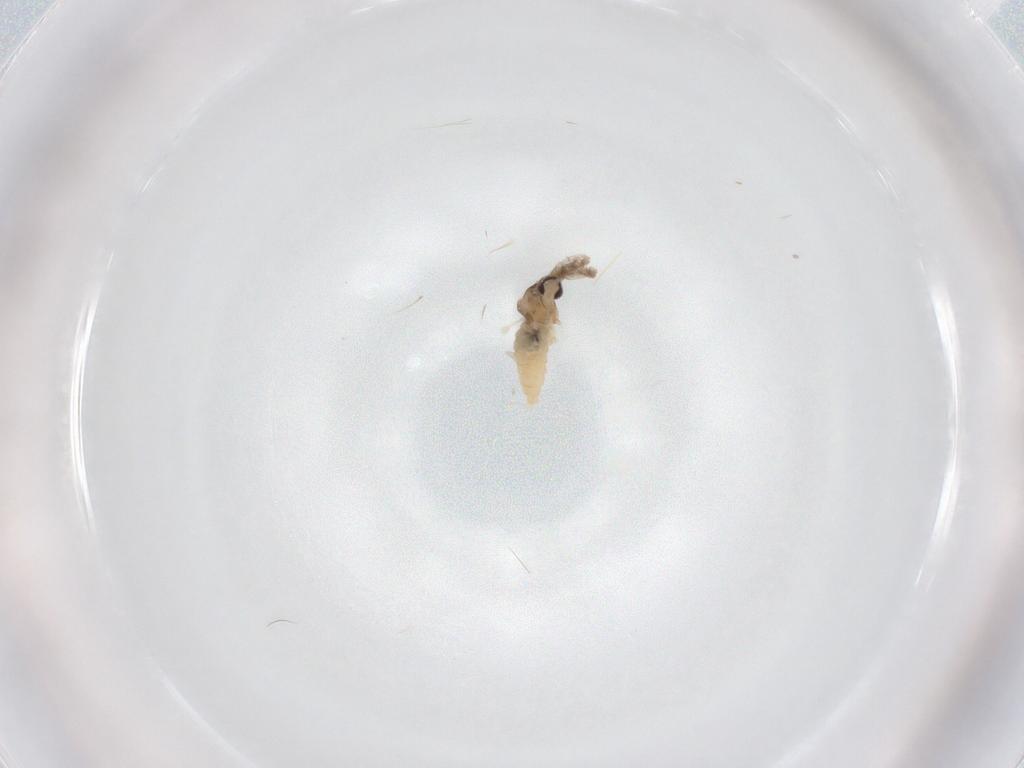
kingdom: Animalia
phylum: Arthropoda
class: Insecta
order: Diptera
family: Cecidomyiidae
